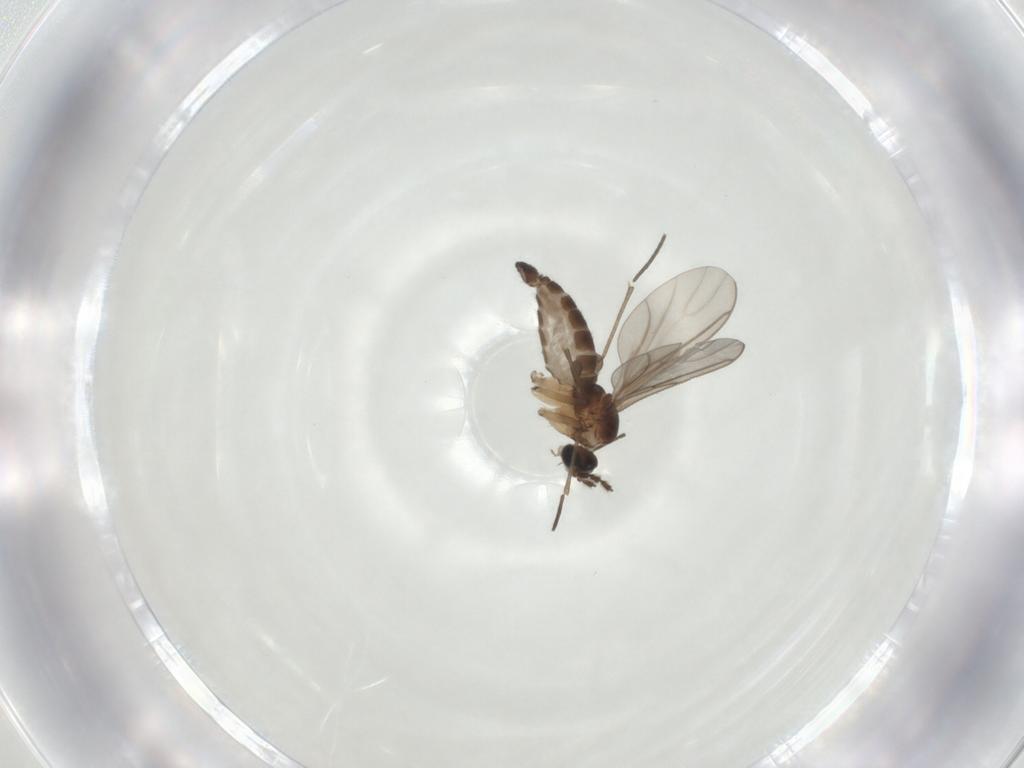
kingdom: Animalia
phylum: Arthropoda
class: Insecta
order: Diptera
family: Sciaridae
